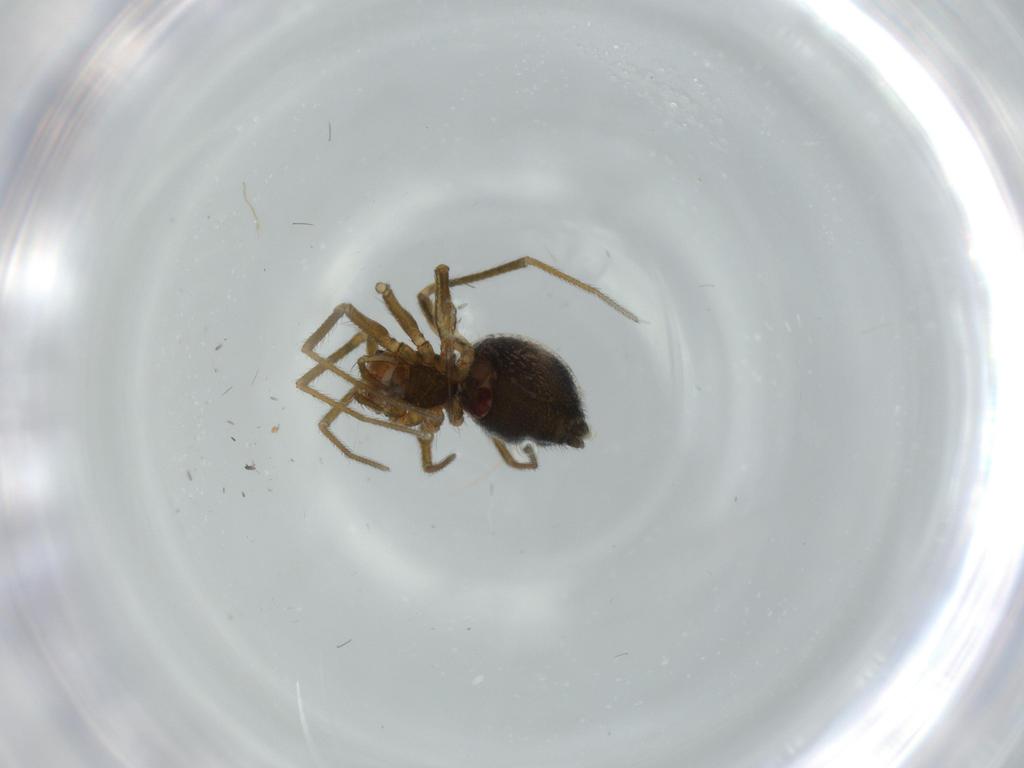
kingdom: Animalia
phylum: Arthropoda
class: Arachnida
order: Araneae
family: Linyphiidae
